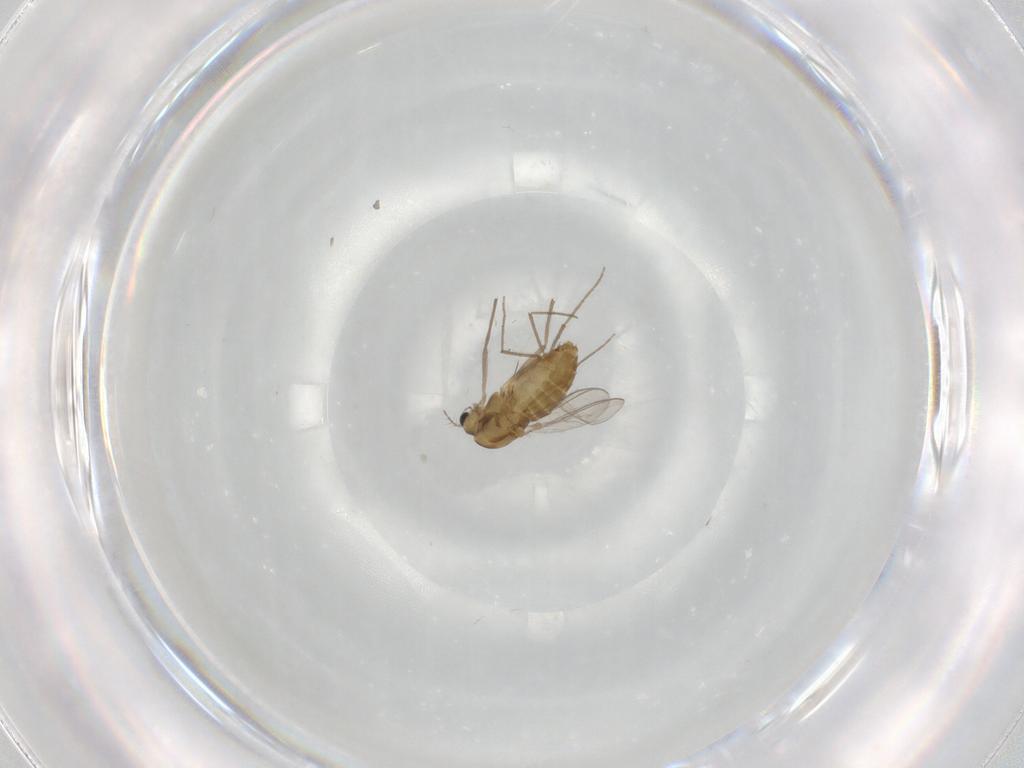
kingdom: Animalia
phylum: Arthropoda
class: Insecta
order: Diptera
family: Chironomidae
